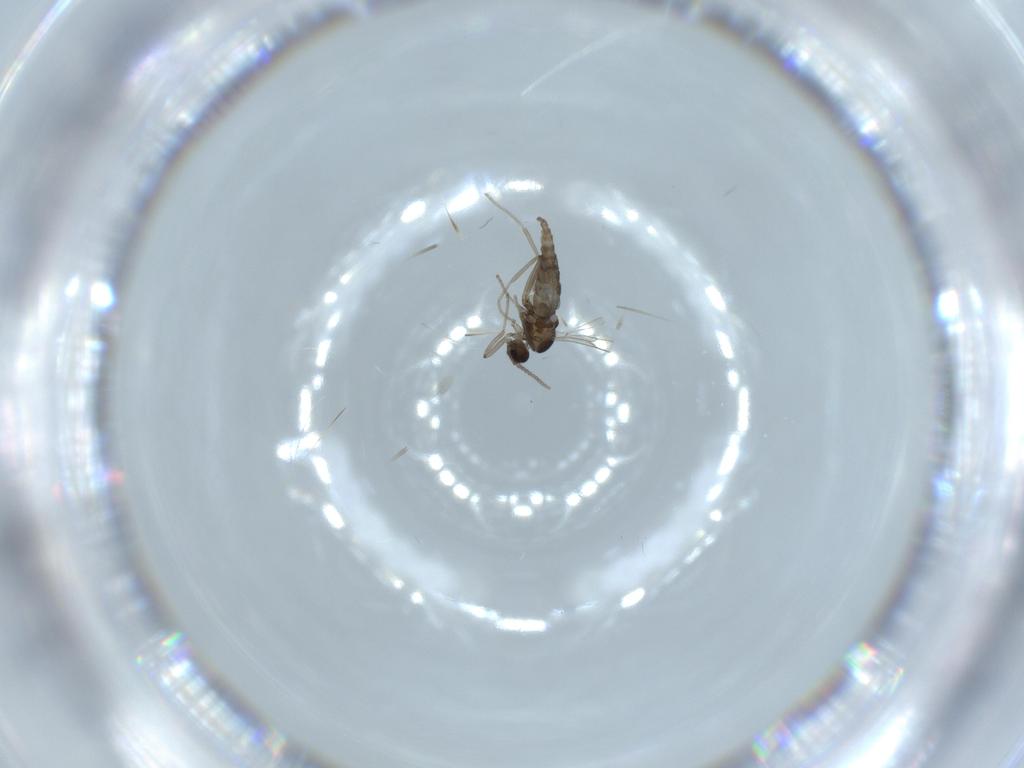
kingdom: Animalia
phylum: Arthropoda
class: Insecta
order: Diptera
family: Cecidomyiidae
